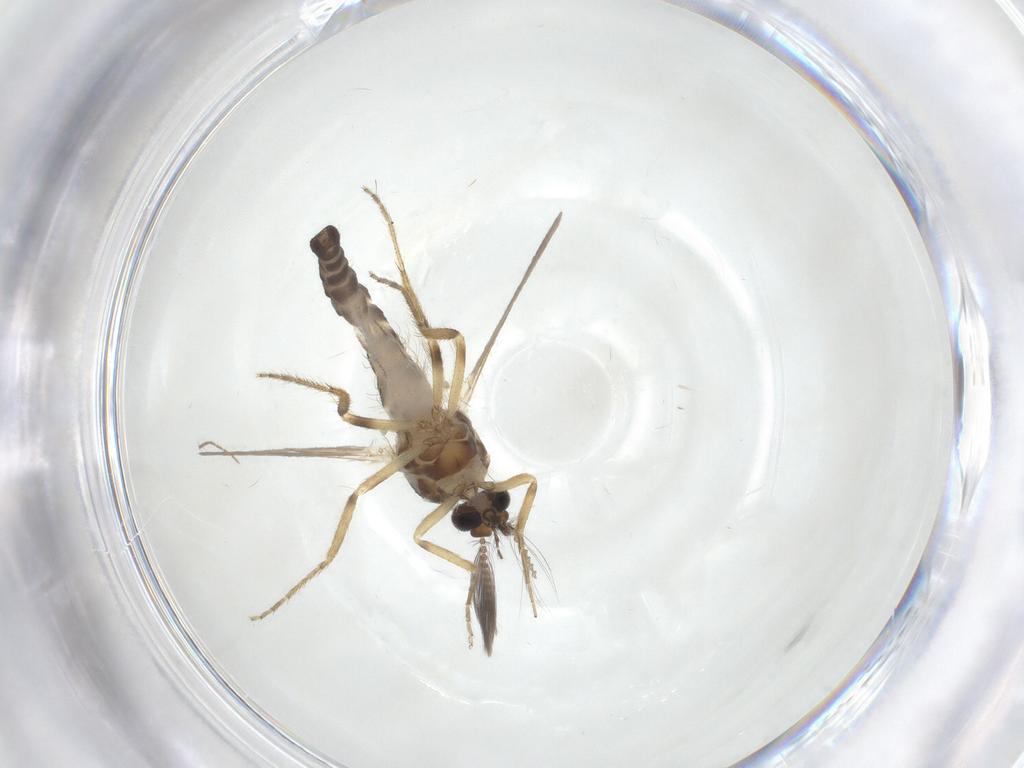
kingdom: Animalia
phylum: Arthropoda
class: Insecta
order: Diptera
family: Ceratopogonidae
